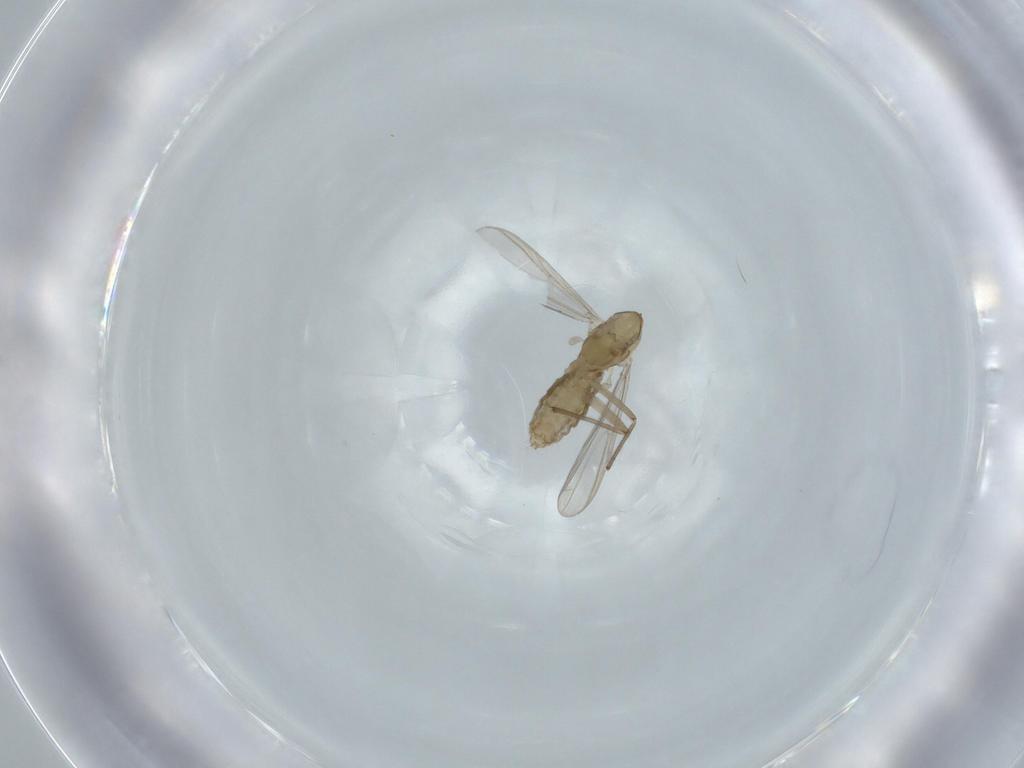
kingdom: Animalia
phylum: Arthropoda
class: Insecta
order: Diptera
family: Chironomidae
